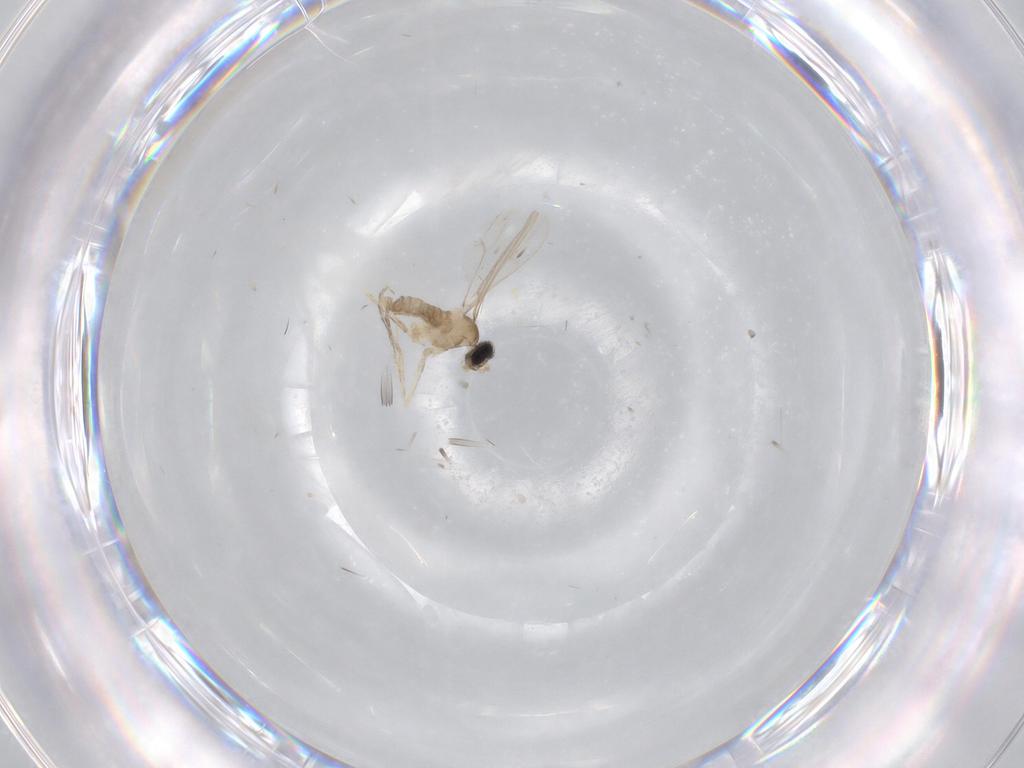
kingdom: Animalia
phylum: Arthropoda
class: Insecta
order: Diptera
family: Cecidomyiidae
